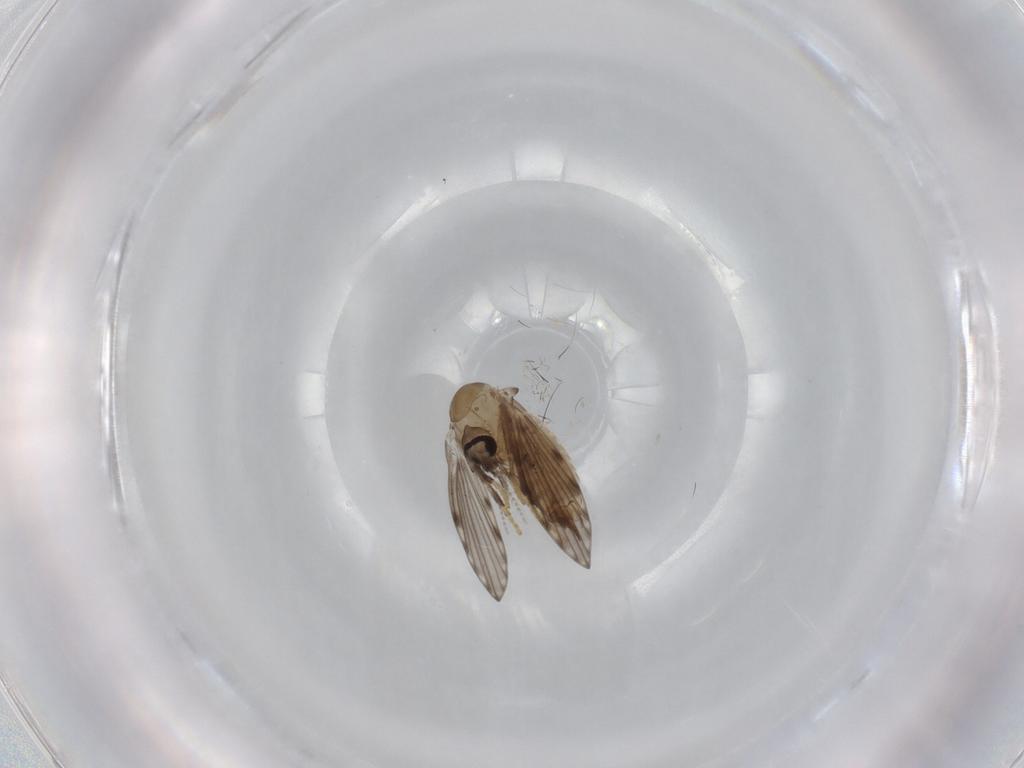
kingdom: Animalia
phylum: Arthropoda
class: Insecta
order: Diptera
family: Psychodidae
